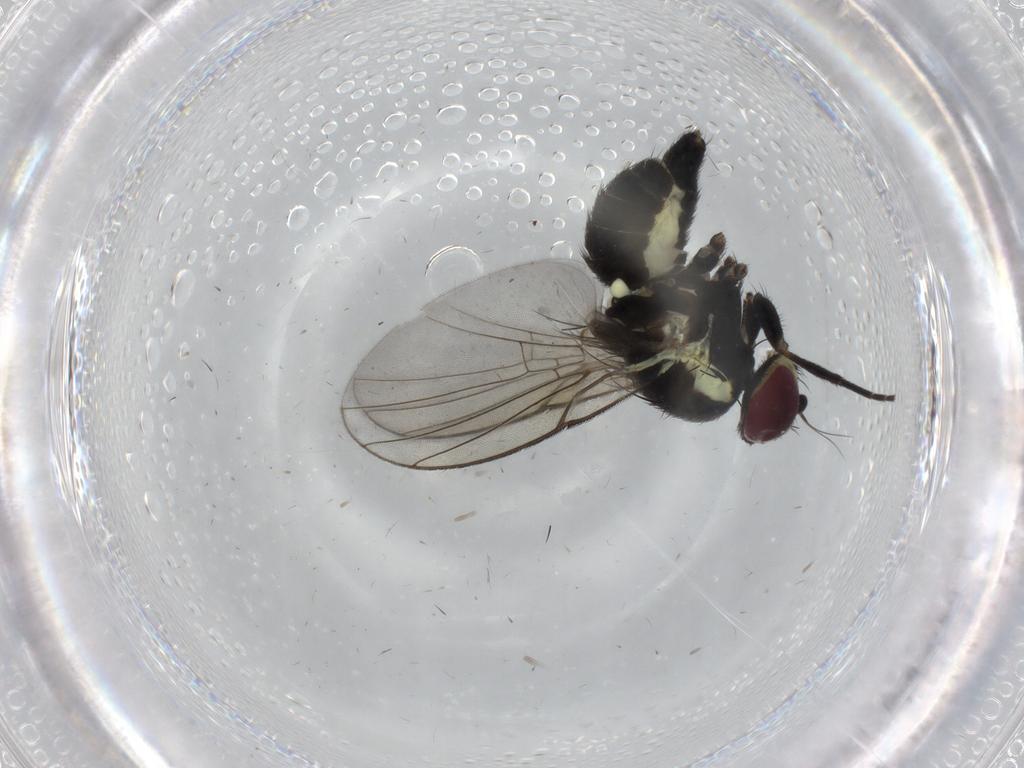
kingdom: Animalia
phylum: Arthropoda
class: Insecta
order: Diptera
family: Agromyzidae
